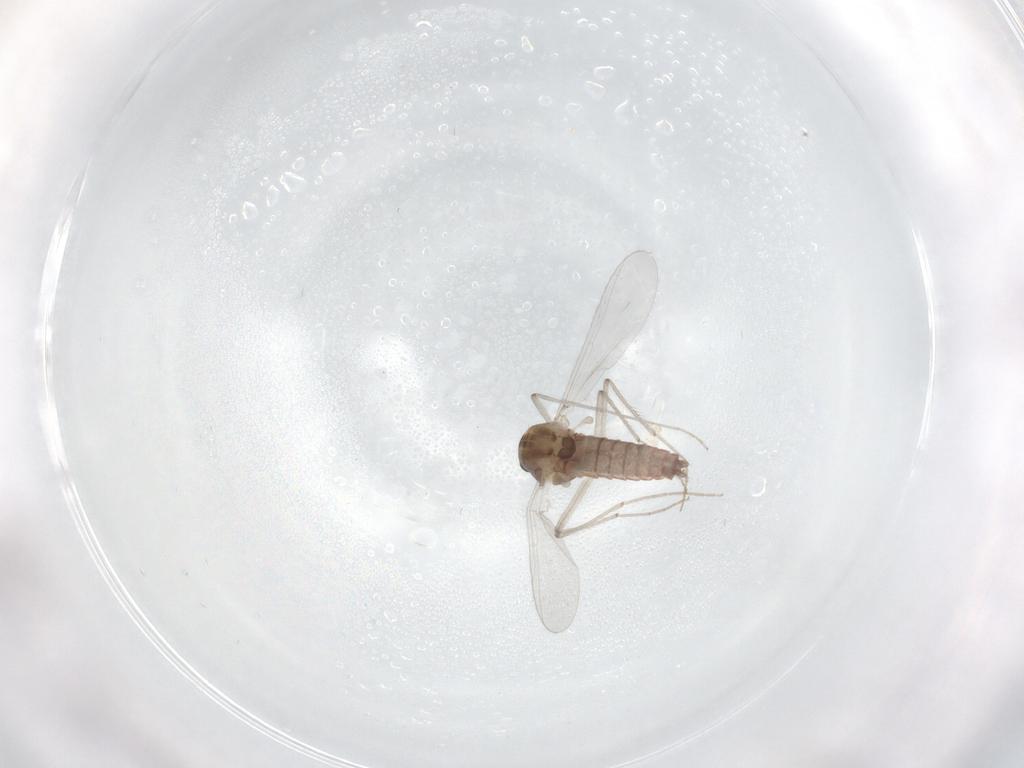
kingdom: Animalia
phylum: Arthropoda
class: Insecta
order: Diptera
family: Chironomidae
